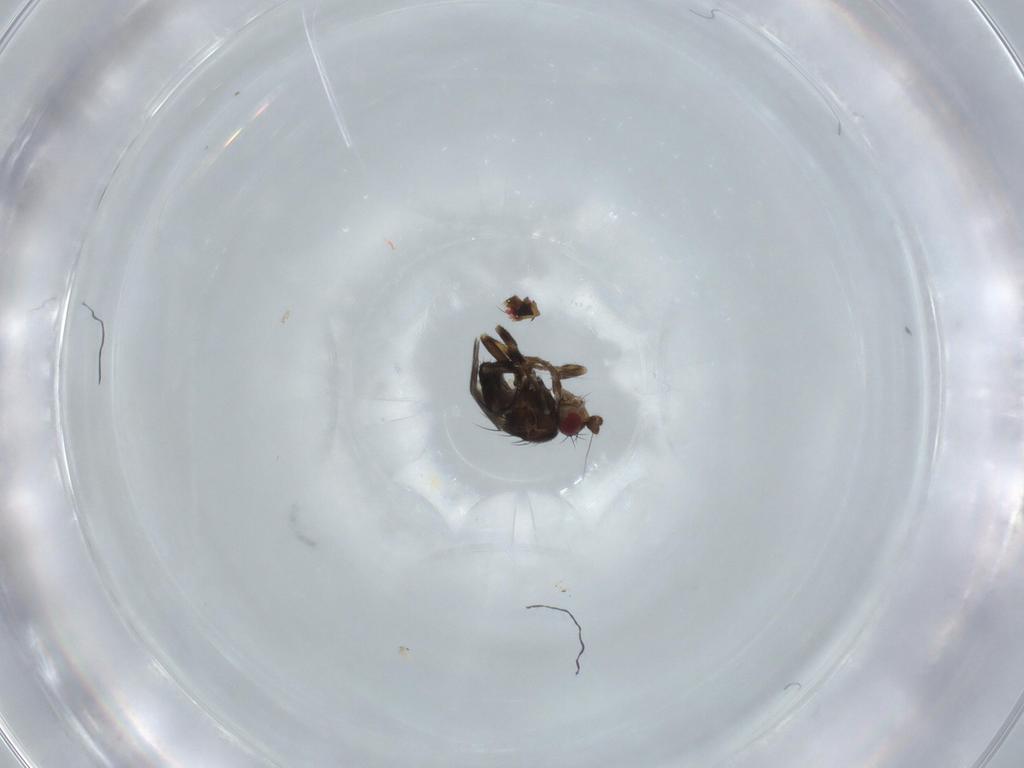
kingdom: Animalia
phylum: Arthropoda
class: Insecta
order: Diptera
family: Sphaeroceridae
